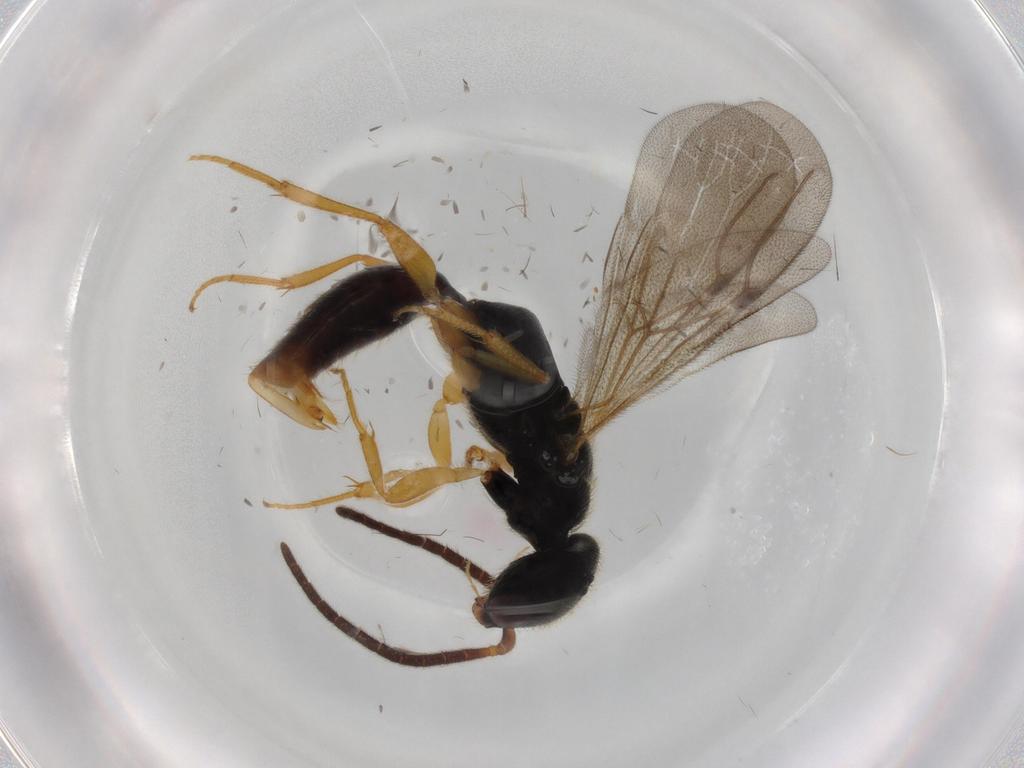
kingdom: Animalia
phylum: Arthropoda
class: Insecta
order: Hymenoptera
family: Bethylidae
